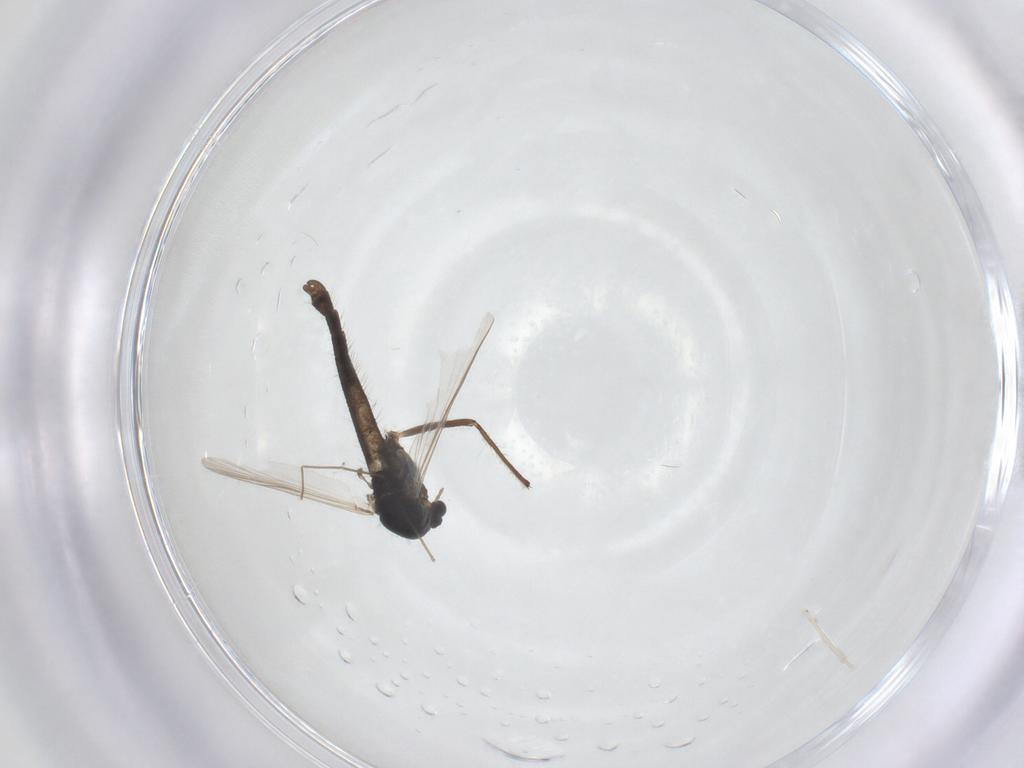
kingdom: Animalia
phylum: Arthropoda
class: Insecta
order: Diptera
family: Chironomidae
